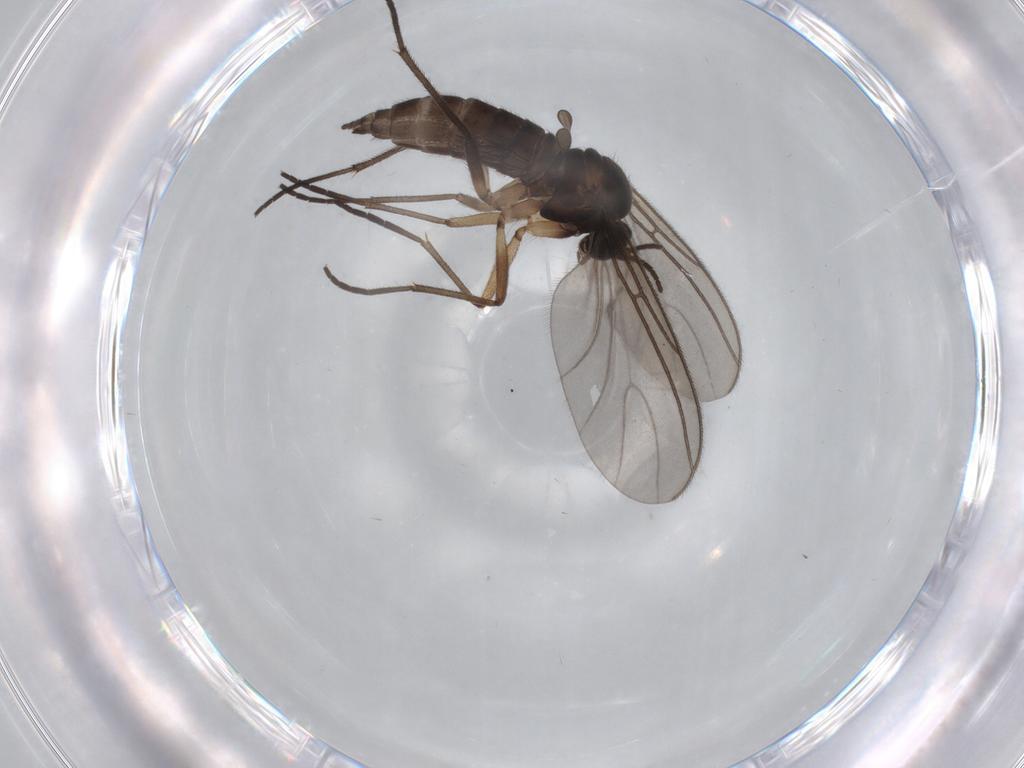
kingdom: Animalia
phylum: Arthropoda
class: Insecta
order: Diptera
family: Sciaridae
